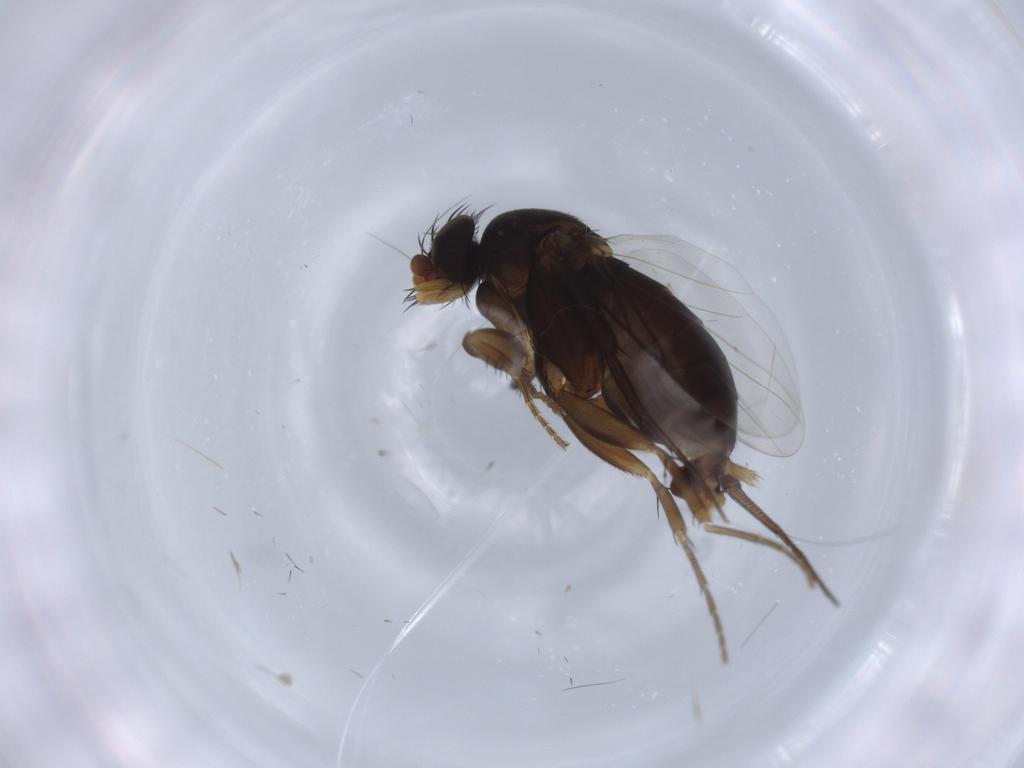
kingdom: Animalia
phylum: Arthropoda
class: Insecta
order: Diptera
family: Phoridae
